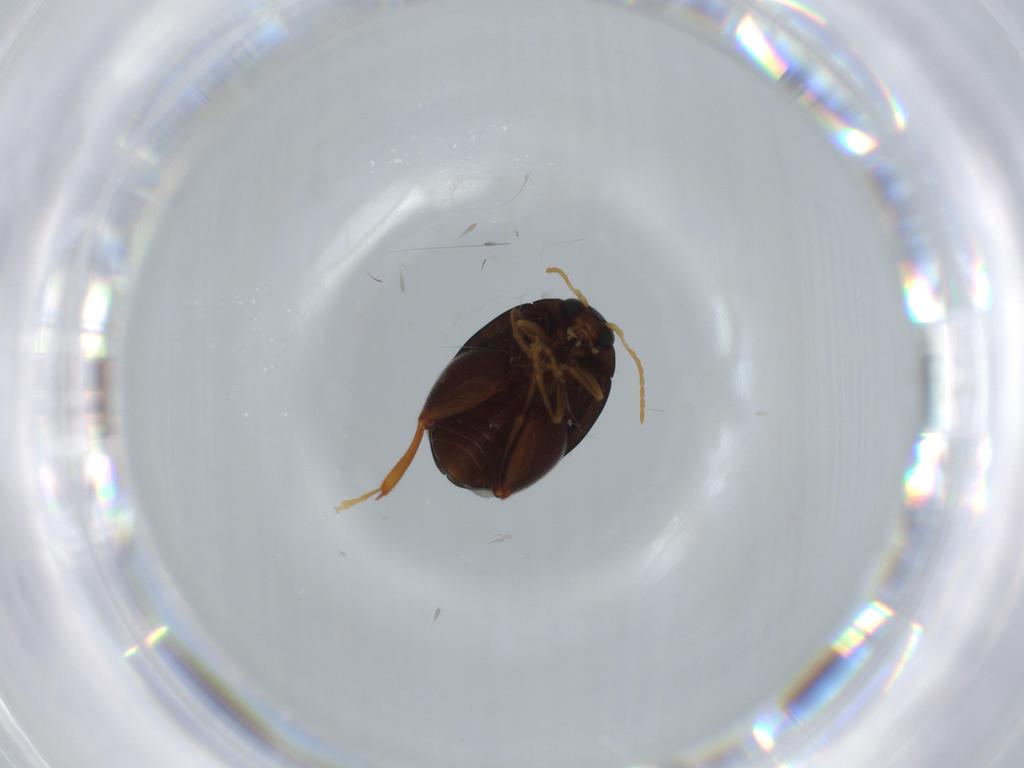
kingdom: Animalia
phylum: Arthropoda
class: Insecta
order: Coleoptera
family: Chrysomelidae
